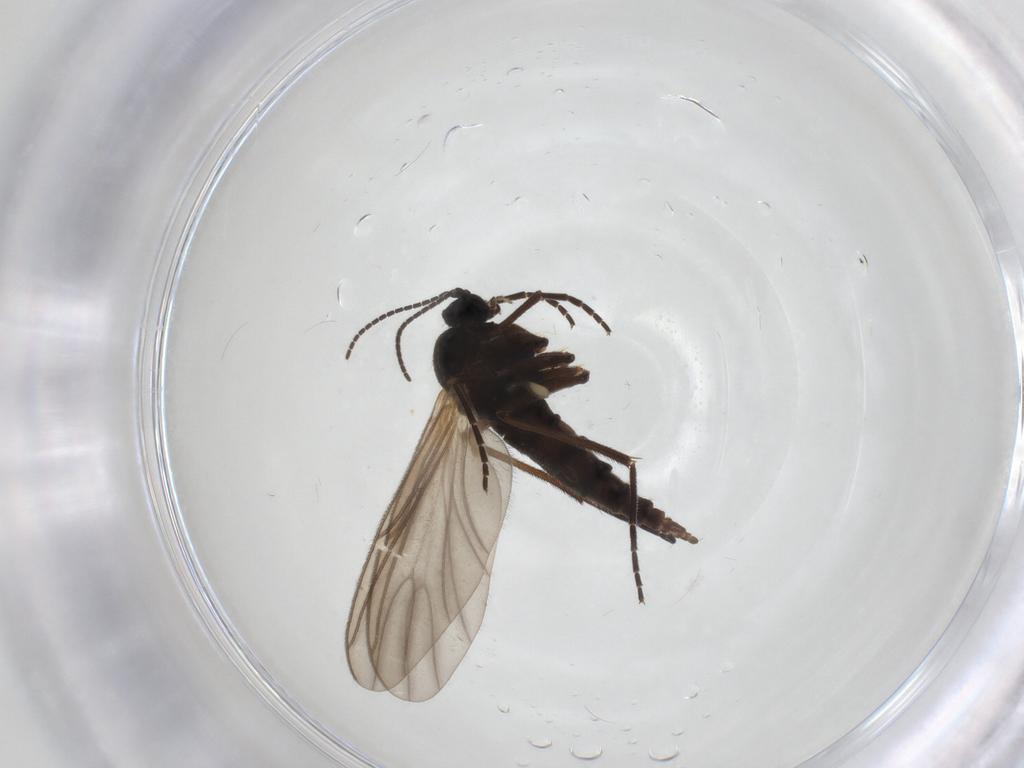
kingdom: Animalia
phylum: Arthropoda
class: Insecta
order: Diptera
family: Sciaridae
